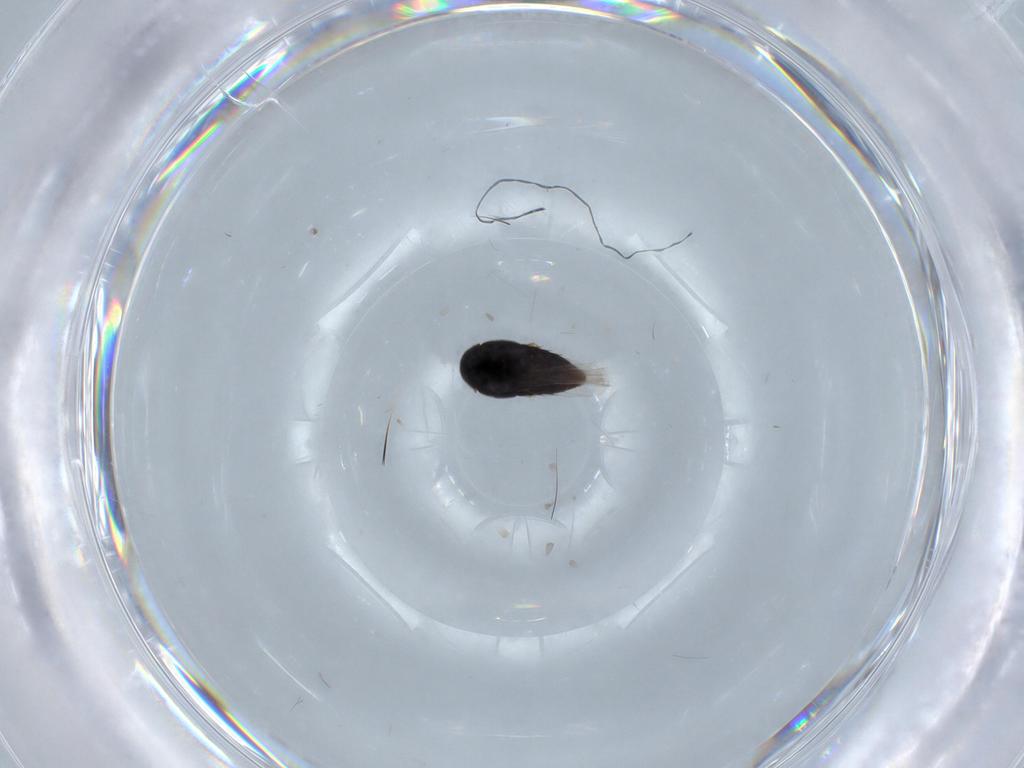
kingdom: Animalia
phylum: Arthropoda
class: Insecta
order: Coleoptera
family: Staphylinidae
